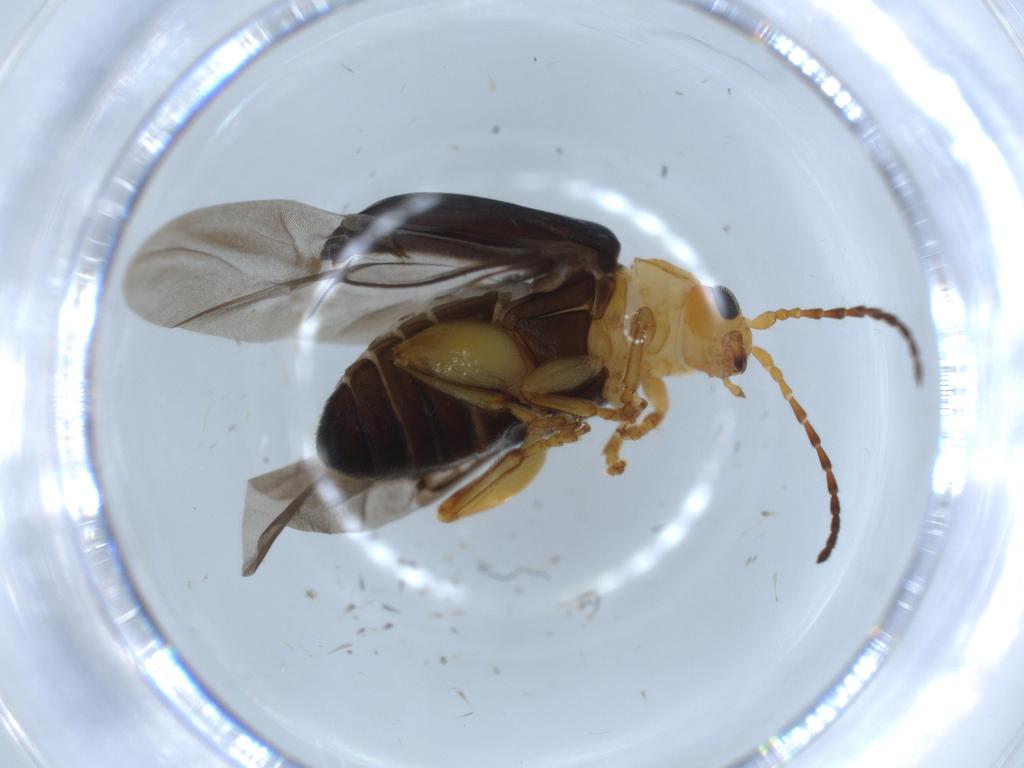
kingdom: Animalia
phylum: Arthropoda
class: Insecta
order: Coleoptera
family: Chrysomelidae
